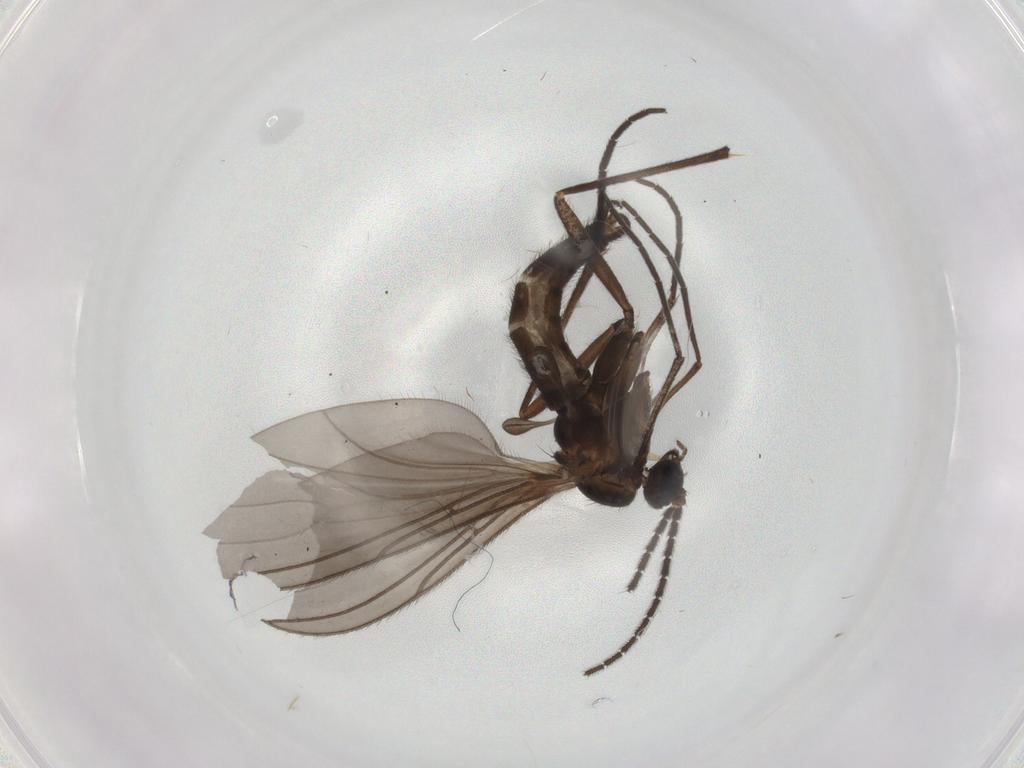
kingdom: Animalia
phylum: Arthropoda
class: Insecta
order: Diptera
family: Sciaridae
